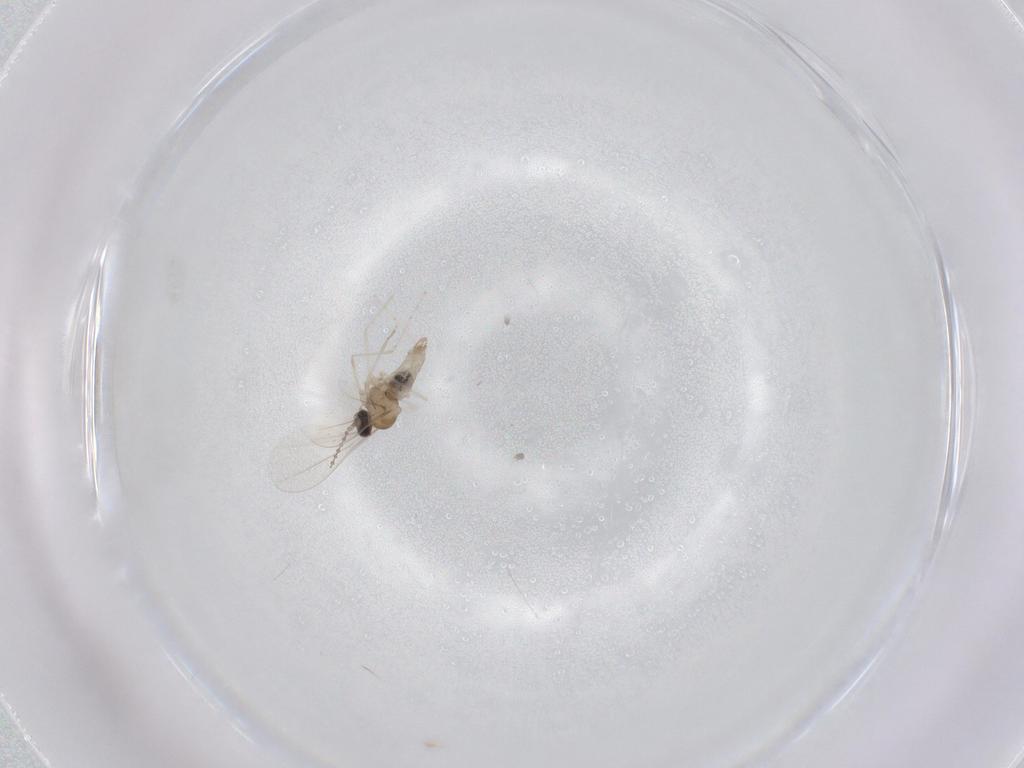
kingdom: Animalia
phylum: Arthropoda
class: Insecta
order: Diptera
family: Cecidomyiidae
